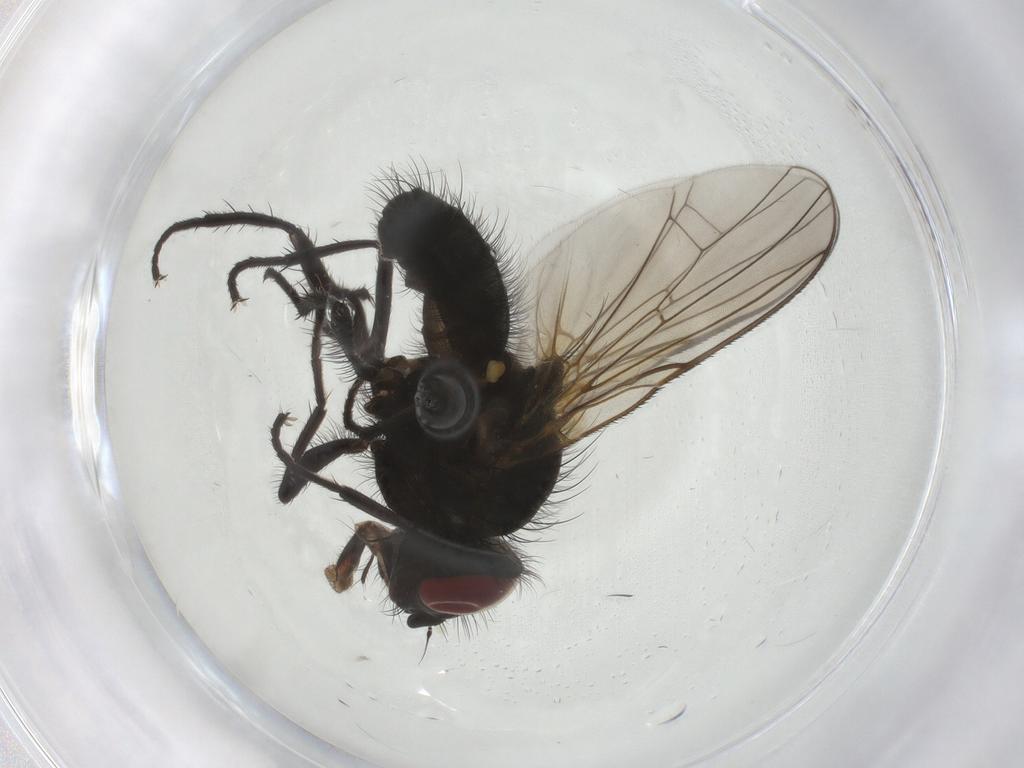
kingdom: Animalia
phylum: Arthropoda
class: Insecta
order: Diptera
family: Anthomyiidae
